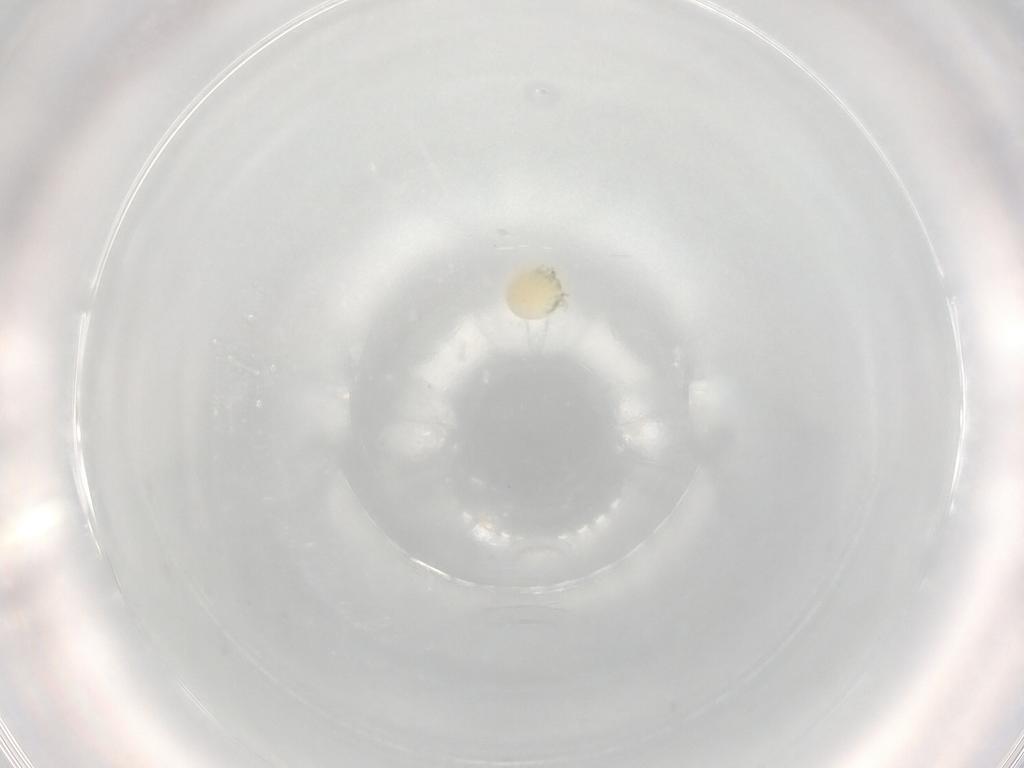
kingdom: Animalia
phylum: Arthropoda
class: Arachnida
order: Trombidiformes
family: Arrenuridae
